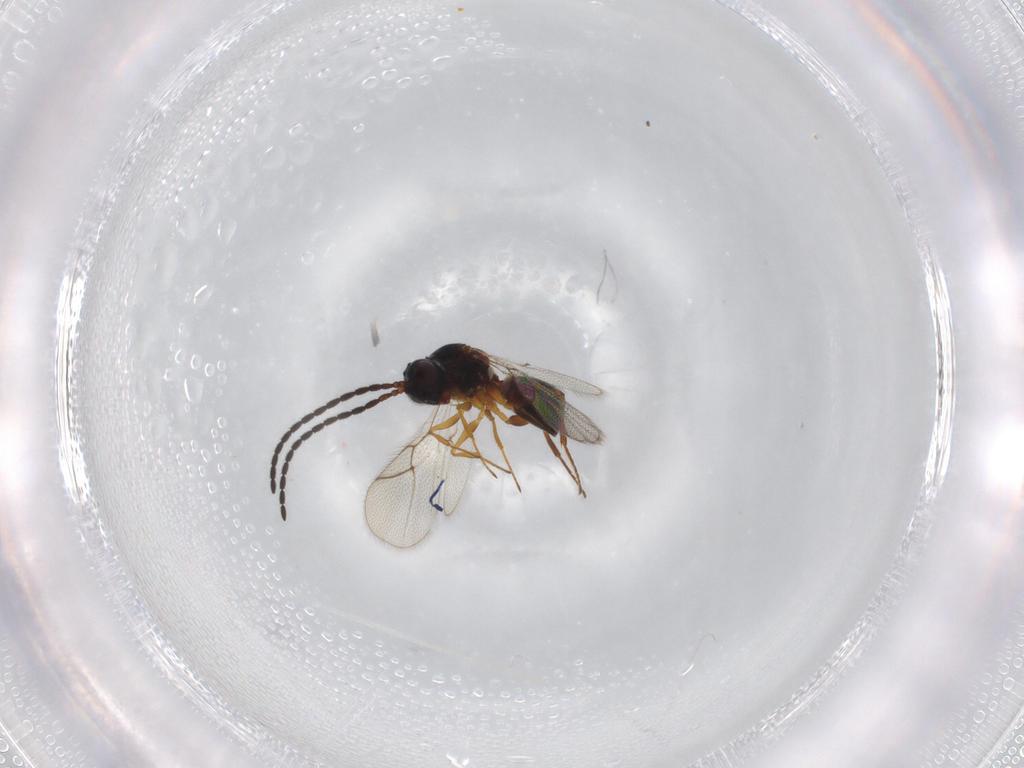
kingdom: Animalia
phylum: Arthropoda
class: Insecta
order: Hymenoptera
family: Figitidae
